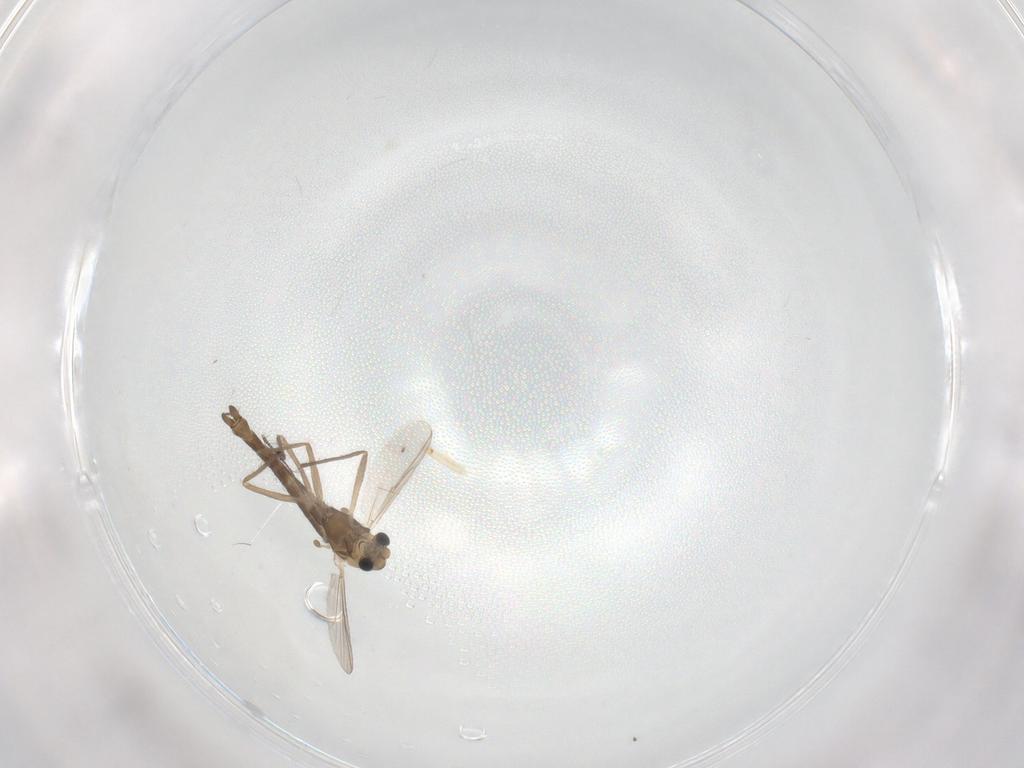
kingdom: Animalia
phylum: Arthropoda
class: Insecta
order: Diptera
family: Chironomidae
